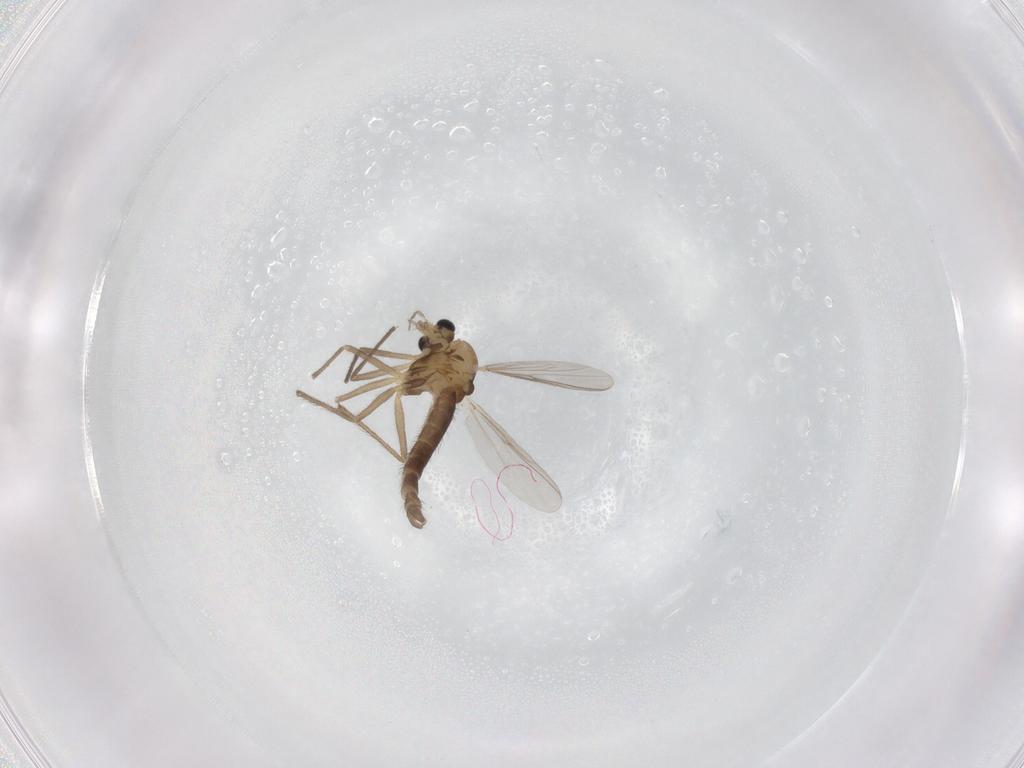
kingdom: Animalia
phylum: Arthropoda
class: Insecta
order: Diptera
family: Chironomidae
